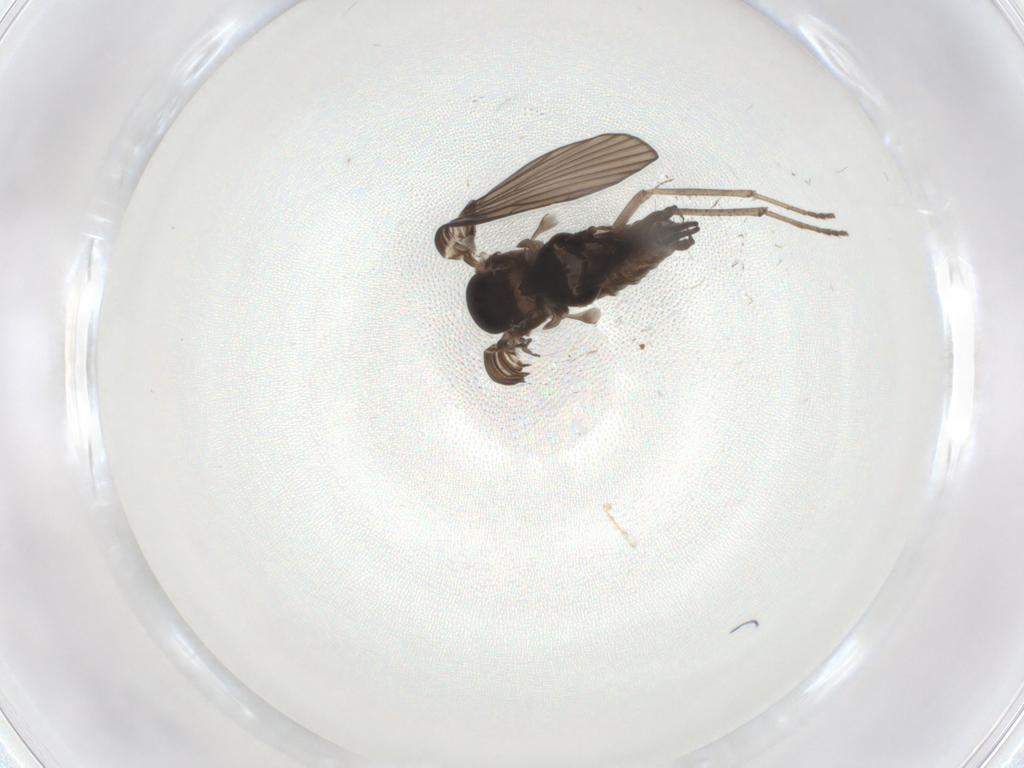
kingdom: Animalia
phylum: Arthropoda
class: Insecta
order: Diptera
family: Psychodidae
